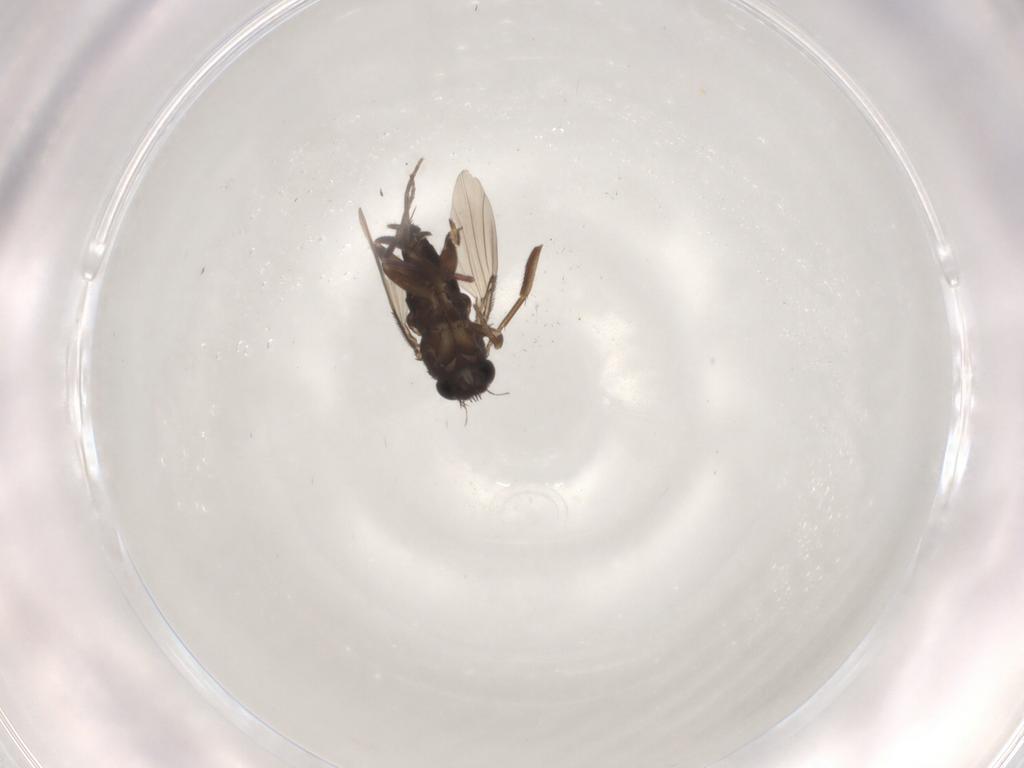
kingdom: Animalia
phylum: Arthropoda
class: Insecta
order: Diptera
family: Phoridae
